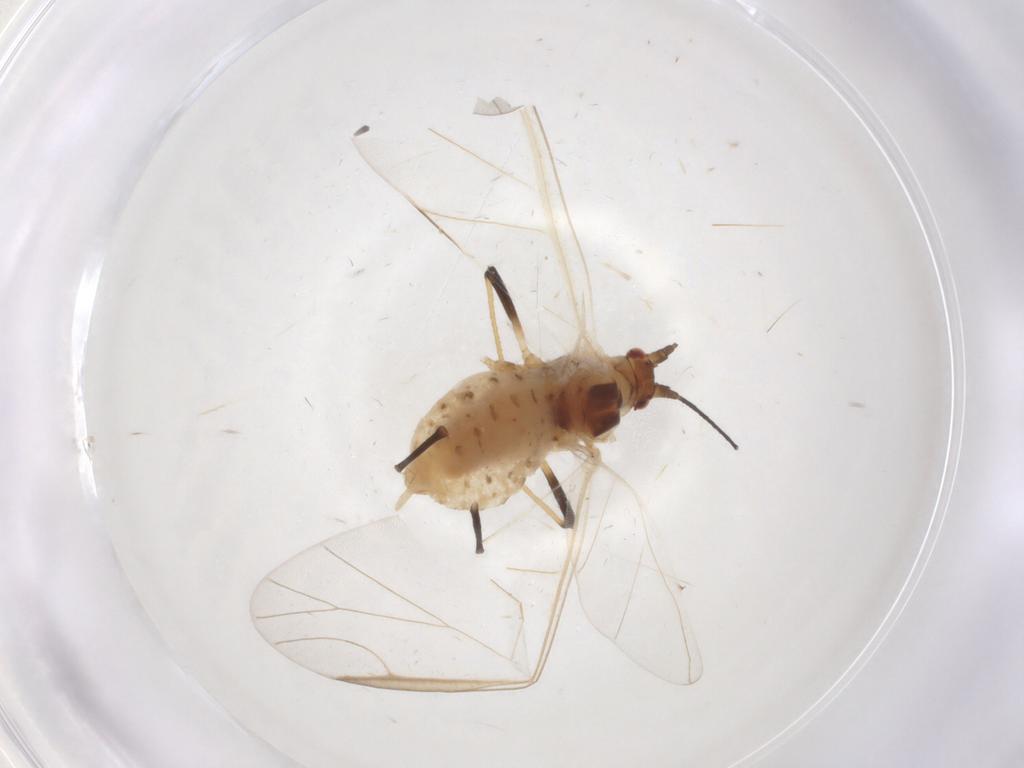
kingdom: Animalia
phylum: Arthropoda
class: Insecta
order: Hemiptera
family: Aphididae
